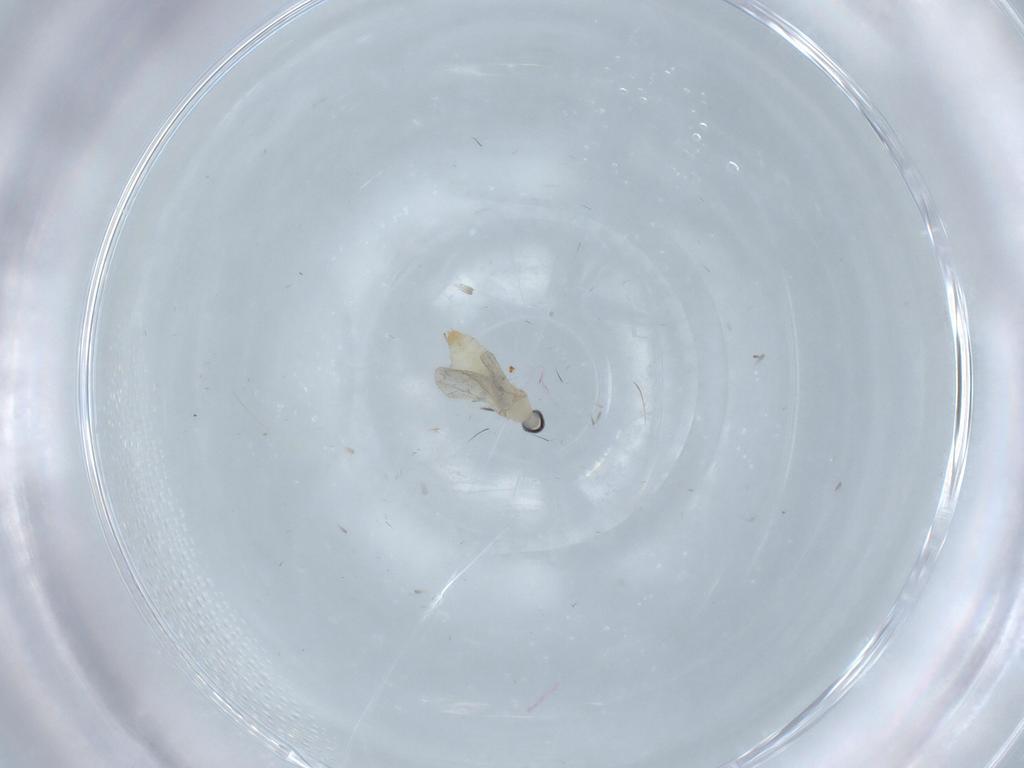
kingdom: Animalia
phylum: Arthropoda
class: Insecta
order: Diptera
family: Cecidomyiidae
